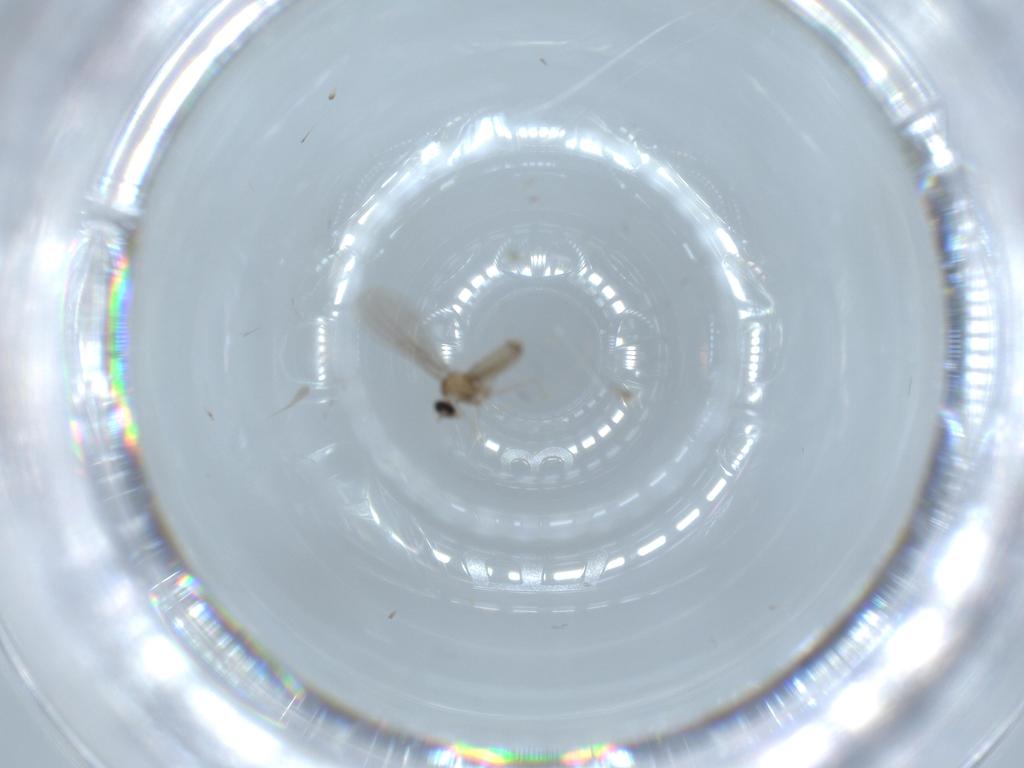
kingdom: Animalia
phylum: Arthropoda
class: Insecta
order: Diptera
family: Cecidomyiidae
